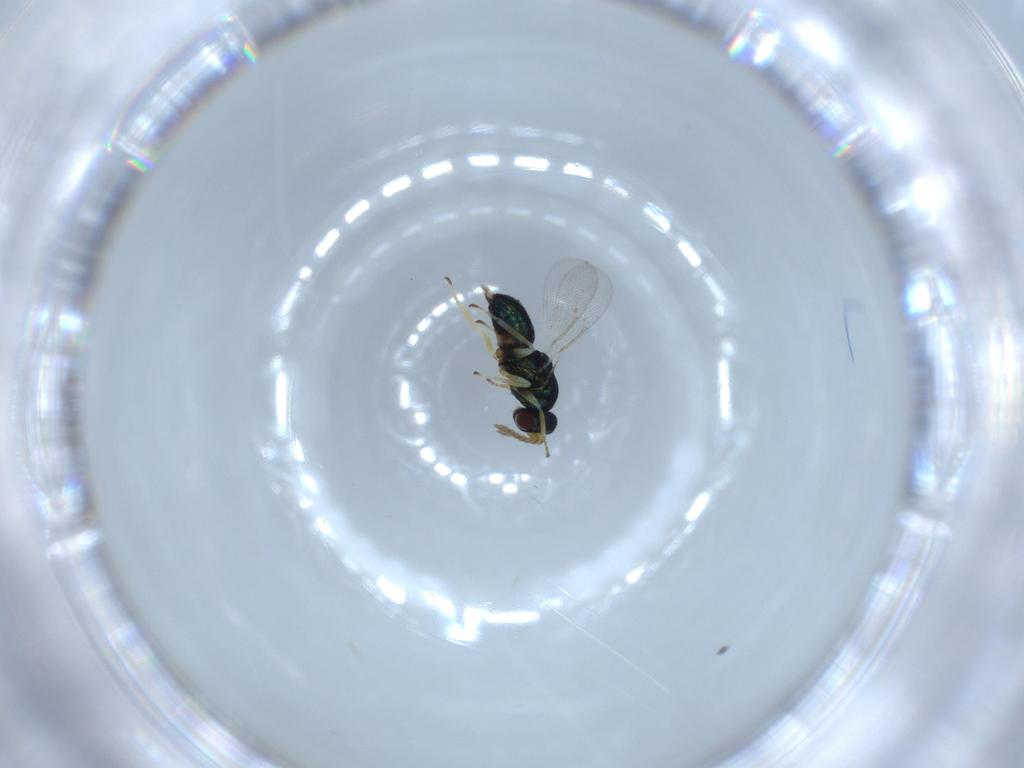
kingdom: Animalia
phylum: Arthropoda
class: Insecta
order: Hymenoptera
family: Eulophidae
